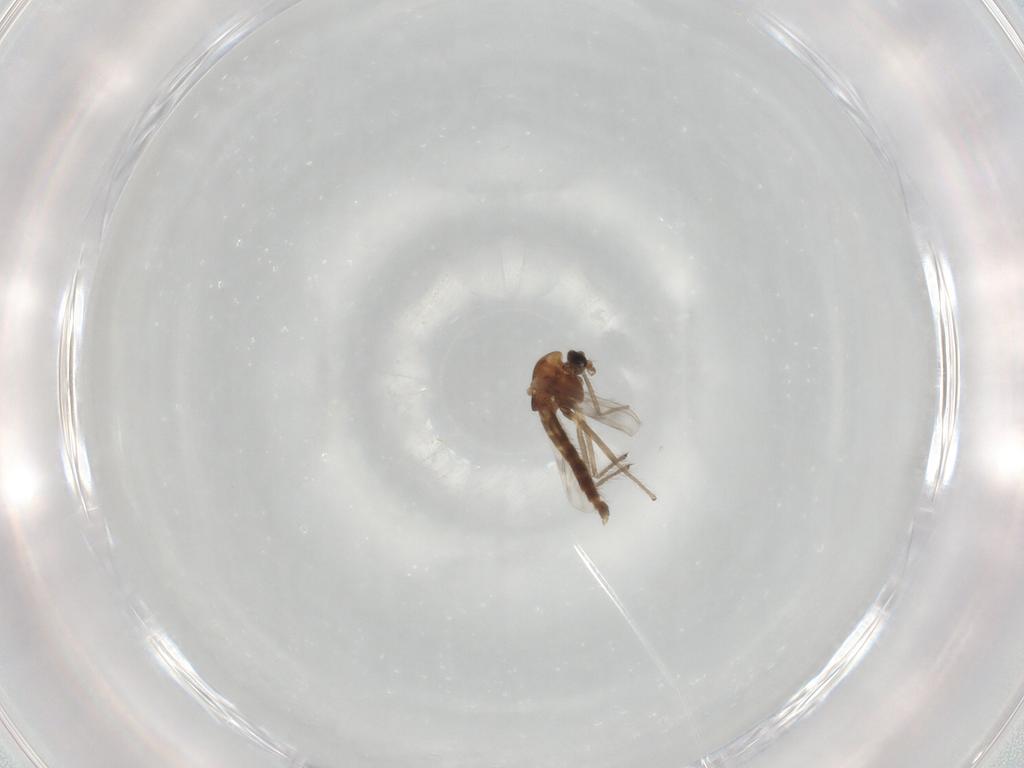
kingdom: Animalia
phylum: Arthropoda
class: Insecta
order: Diptera
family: Chironomidae
